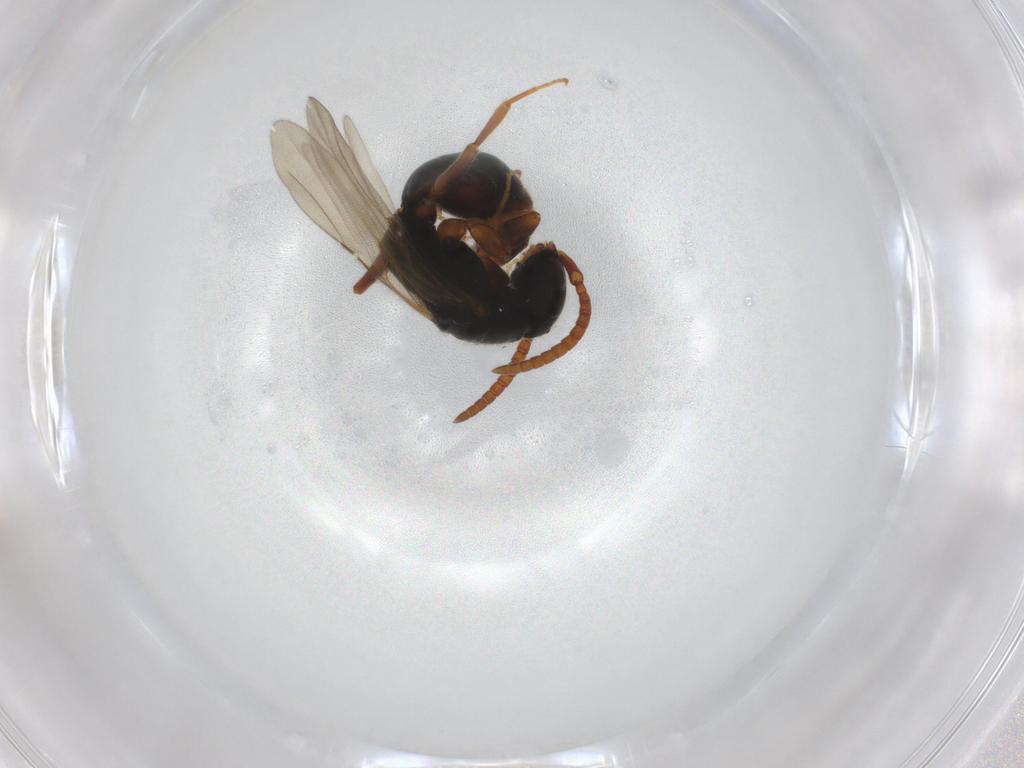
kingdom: Animalia
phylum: Arthropoda
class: Insecta
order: Hymenoptera
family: Bethylidae
